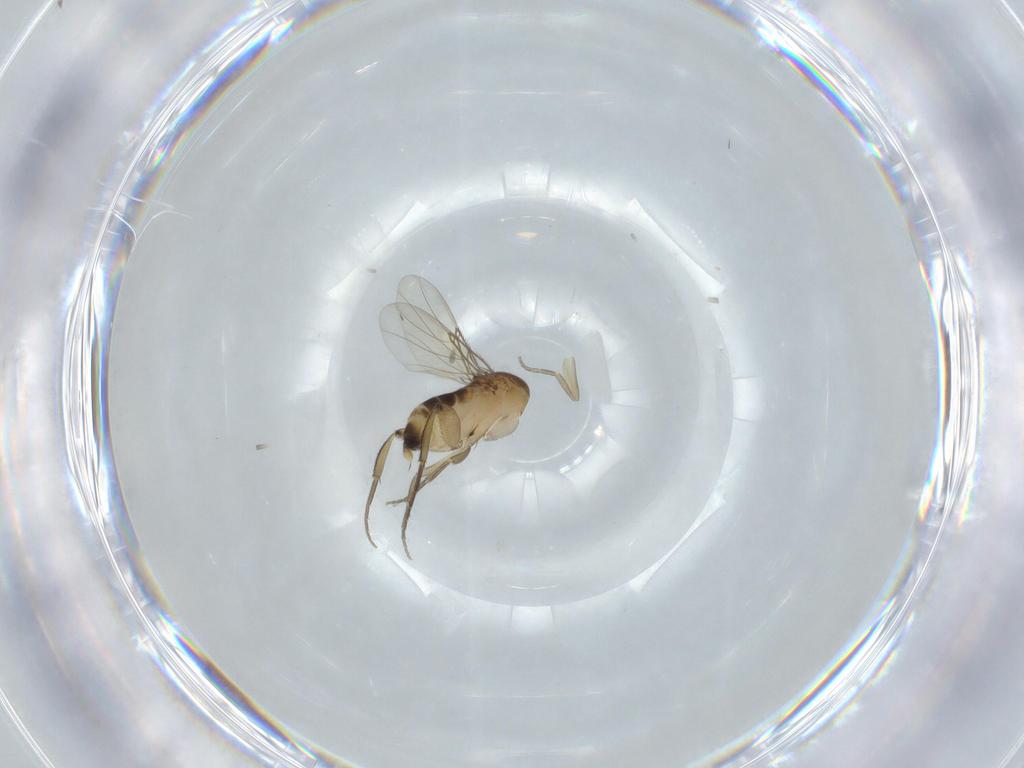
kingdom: Animalia
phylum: Arthropoda
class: Insecta
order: Diptera
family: Phoridae
